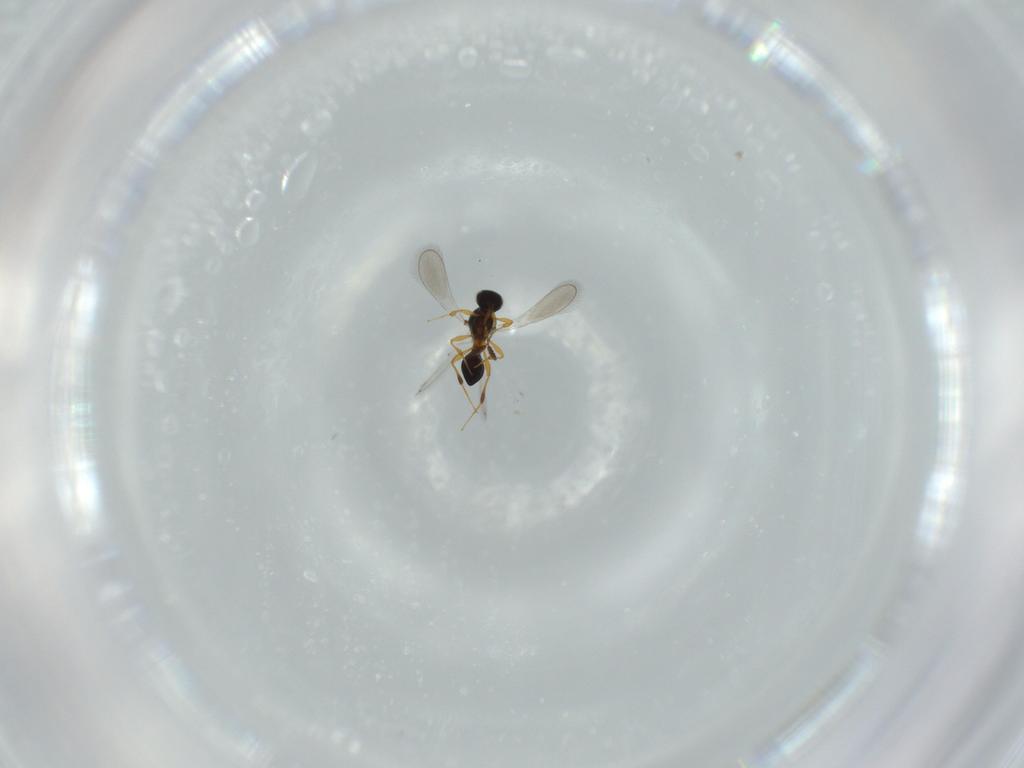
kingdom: Animalia
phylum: Arthropoda
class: Insecta
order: Hymenoptera
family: Platygastridae
